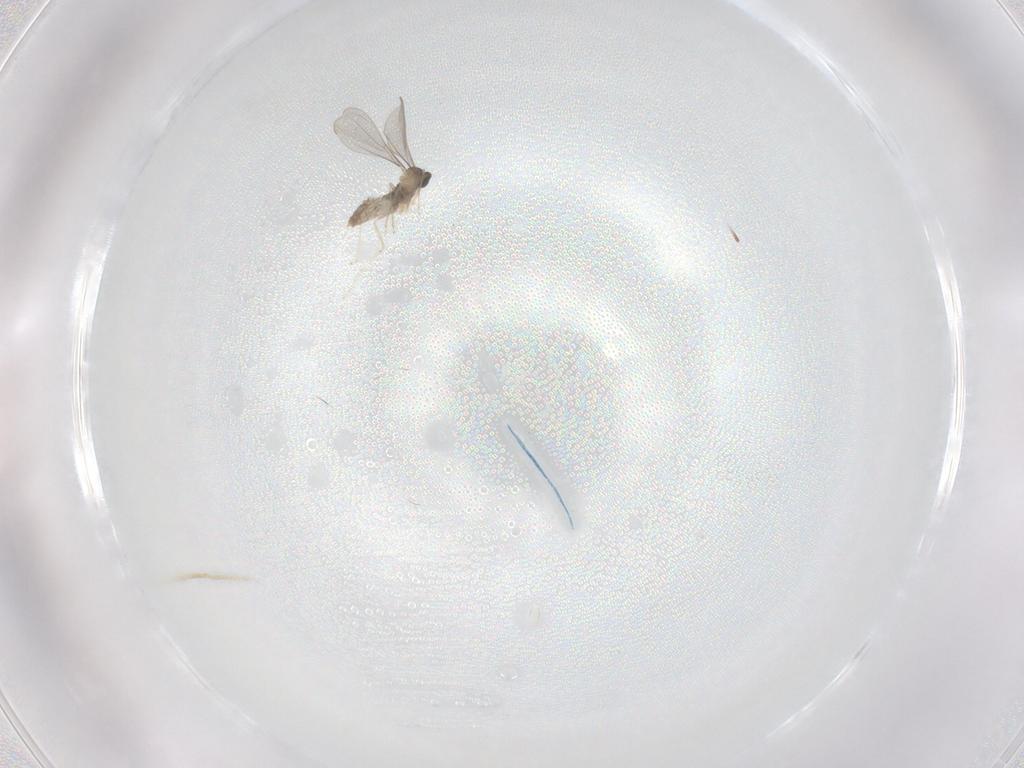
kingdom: Animalia
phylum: Arthropoda
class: Insecta
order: Diptera
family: Cecidomyiidae
